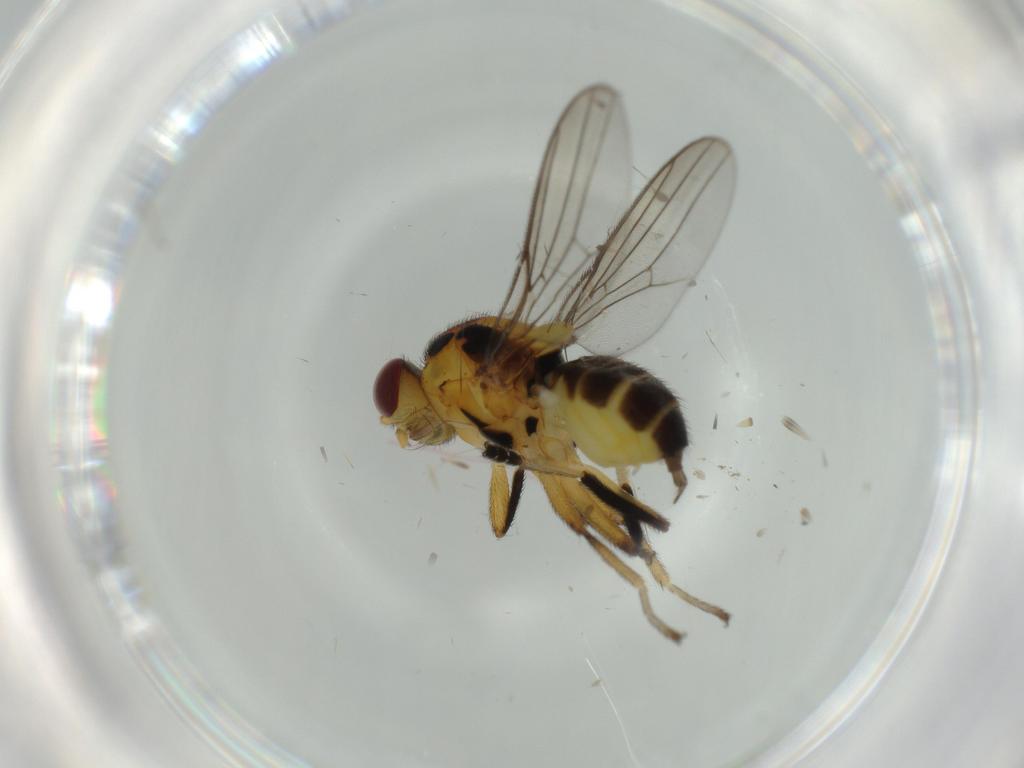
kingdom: Animalia
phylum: Arthropoda
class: Insecta
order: Diptera
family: Chloropidae
